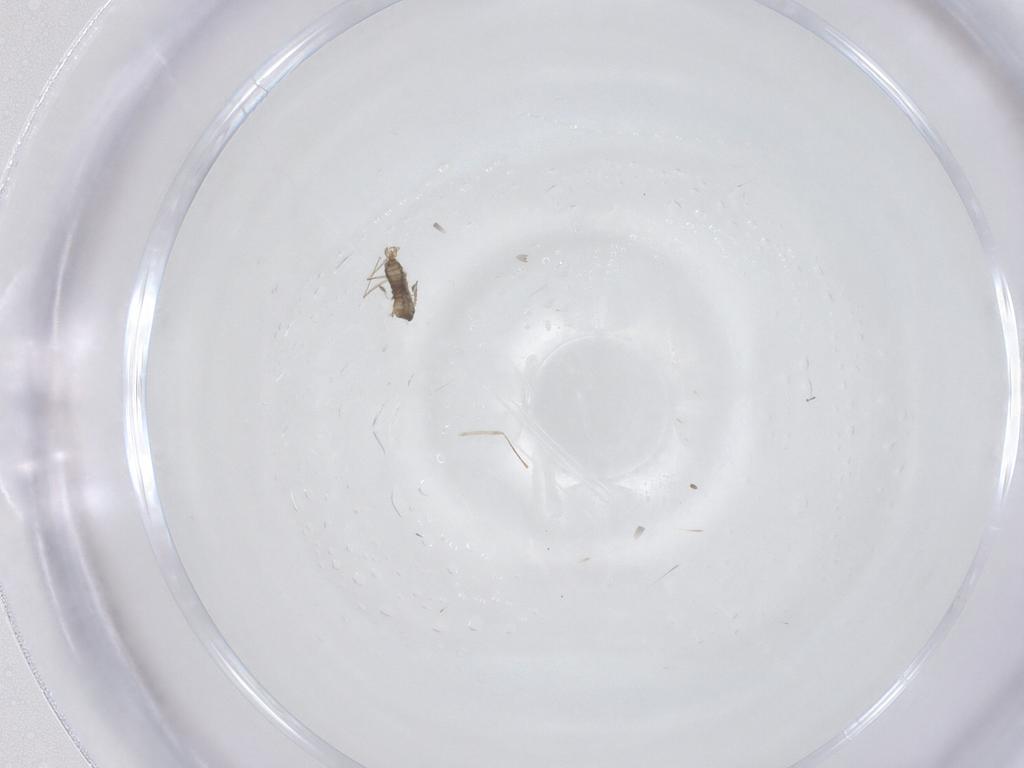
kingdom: Animalia
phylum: Arthropoda
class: Insecta
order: Diptera
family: Cecidomyiidae
